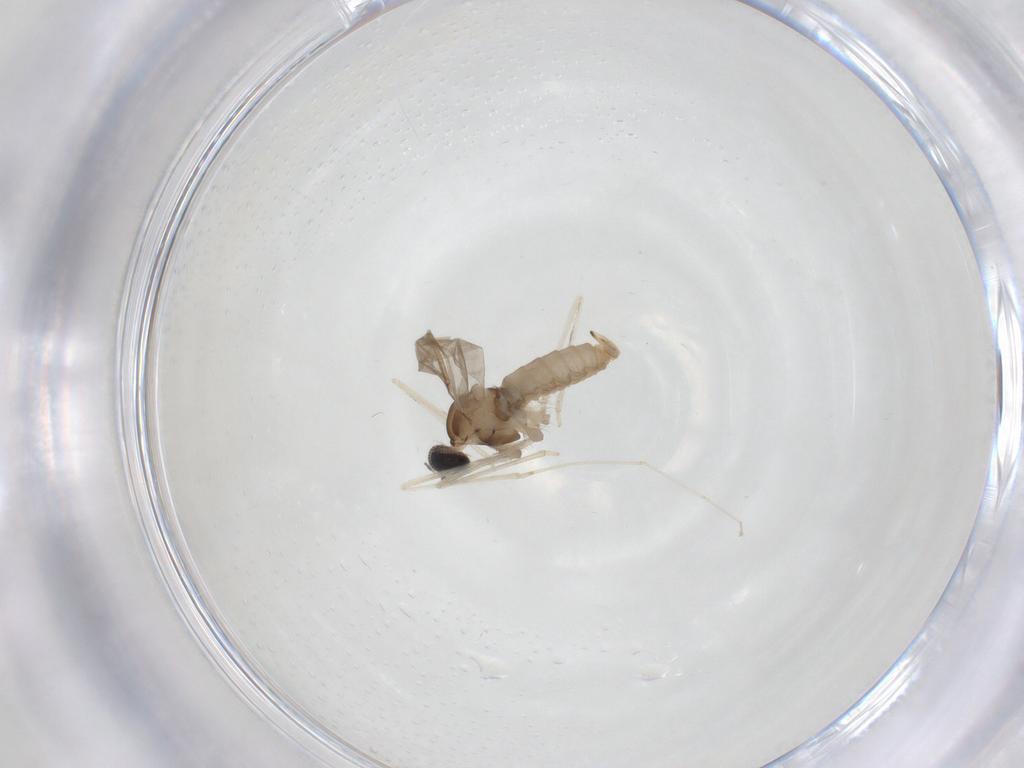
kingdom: Animalia
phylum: Arthropoda
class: Insecta
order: Diptera
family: Cecidomyiidae
